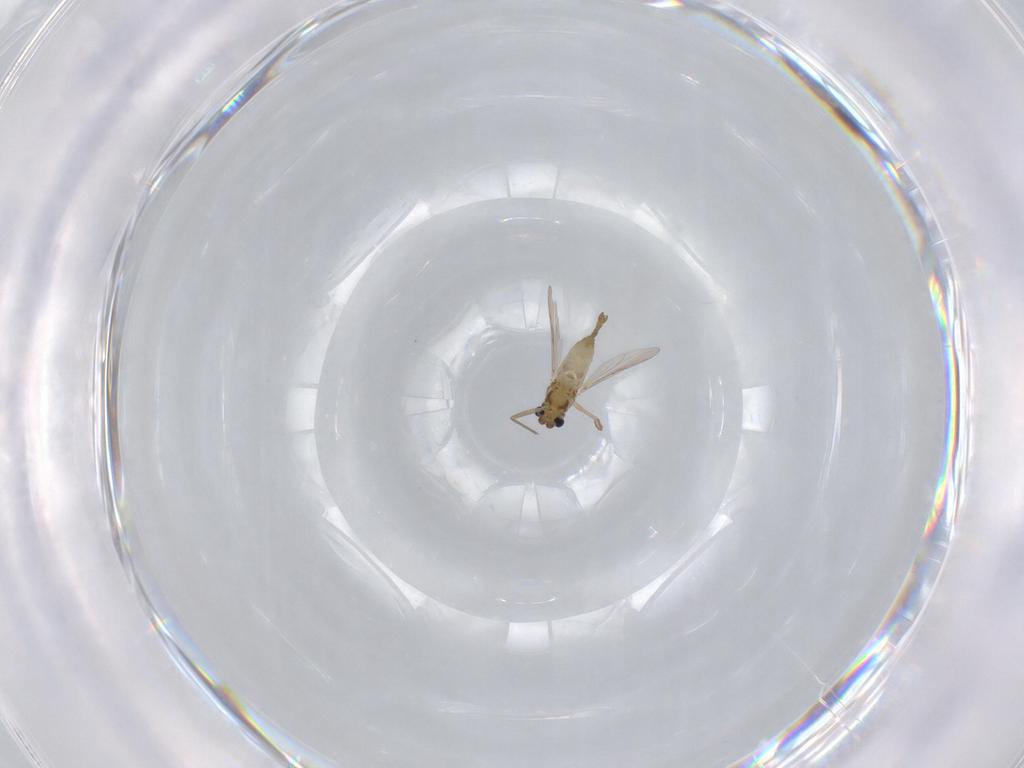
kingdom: Animalia
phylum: Arthropoda
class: Insecta
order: Diptera
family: Chironomidae
